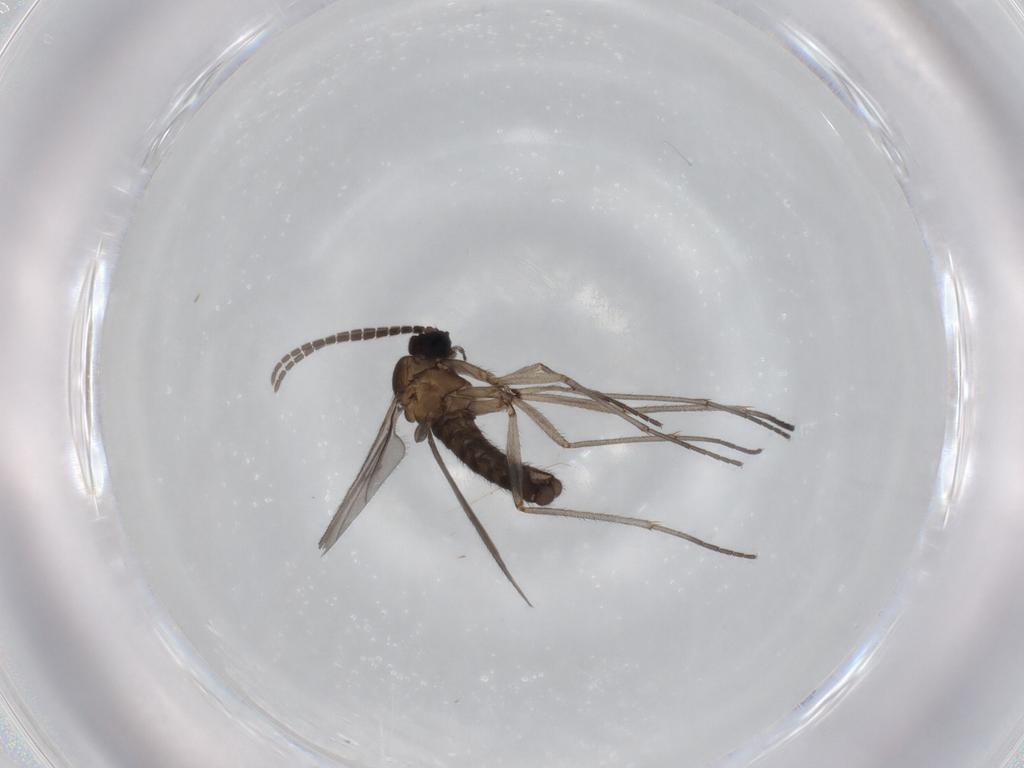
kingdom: Animalia
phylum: Arthropoda
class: Insecta
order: Diptera
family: Sciaridae
